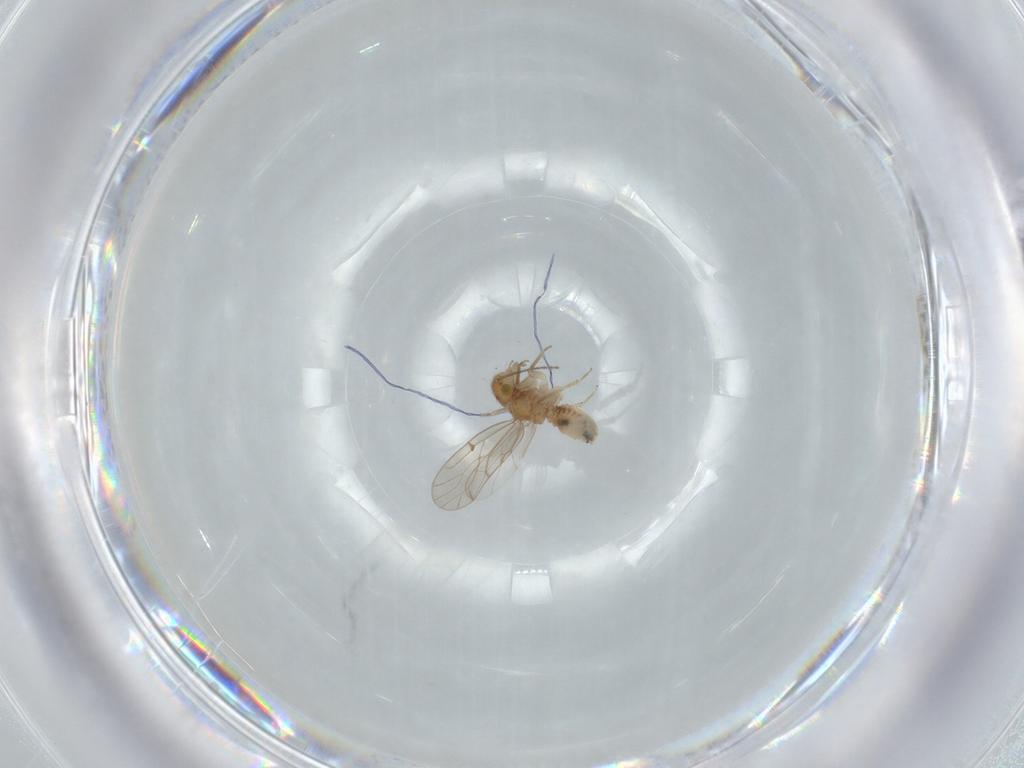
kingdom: Animalia
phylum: Arthropoda
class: Insecta
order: Psocodea
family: Ectopsocidae
